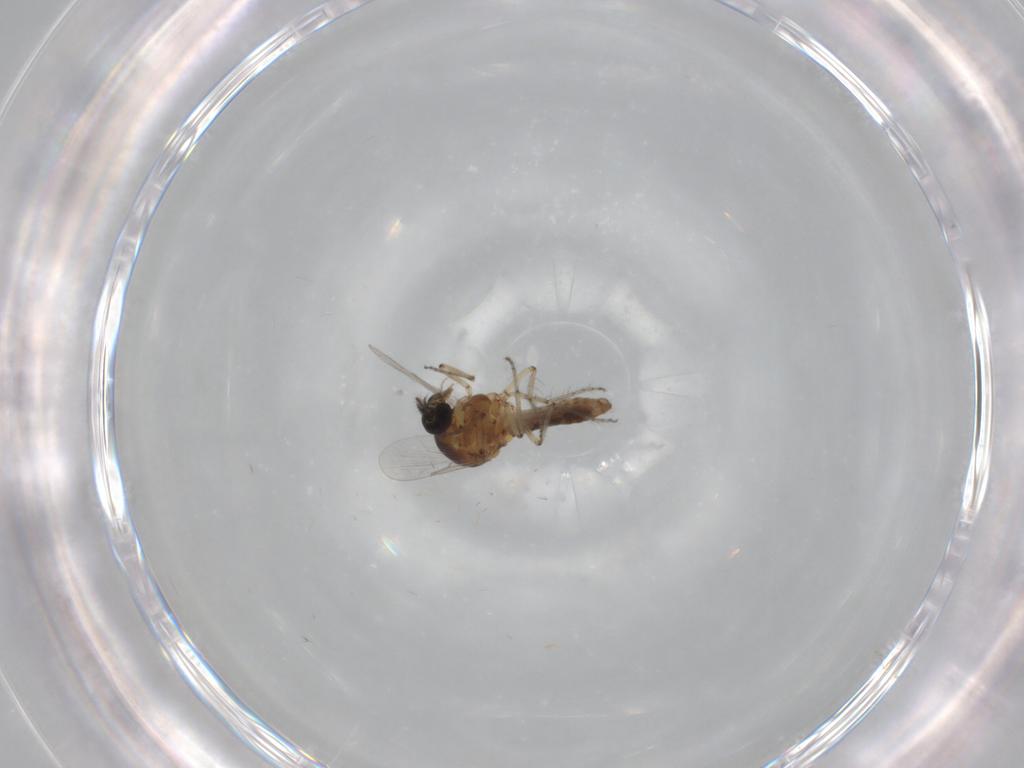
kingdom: Animalia
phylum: Arthropoda
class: Insecta
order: Diptera
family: Ceratopogonidae
